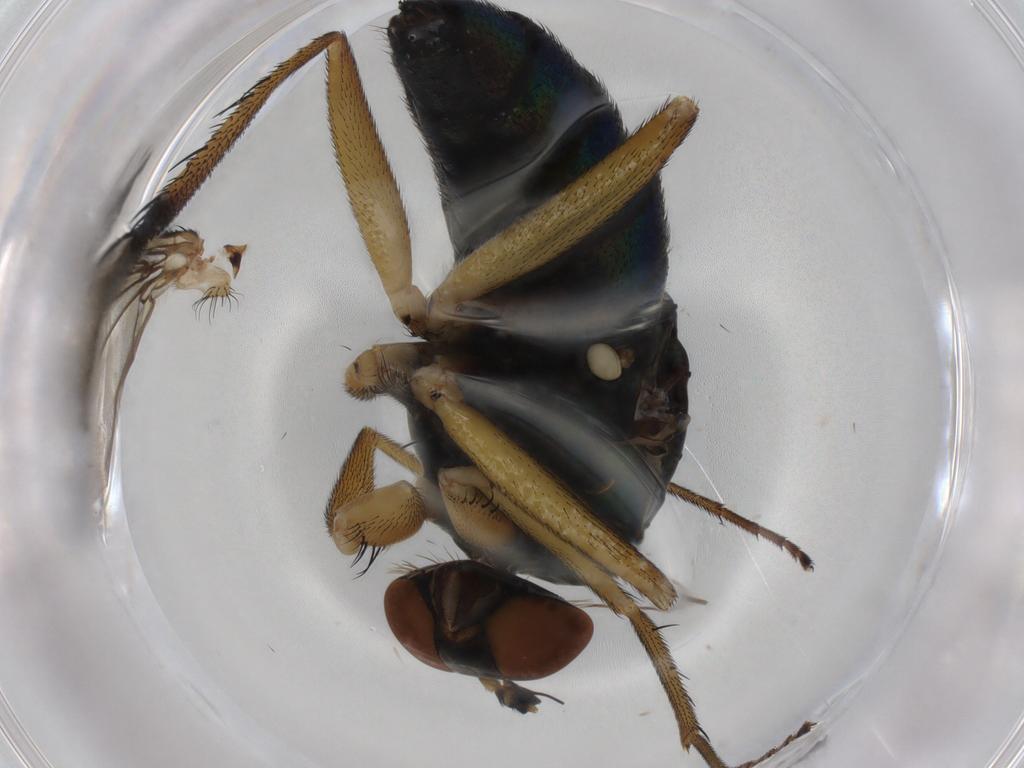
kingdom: Animalia
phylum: Arthropoda
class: Insecta
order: Diptera
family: Dolichopodidae
